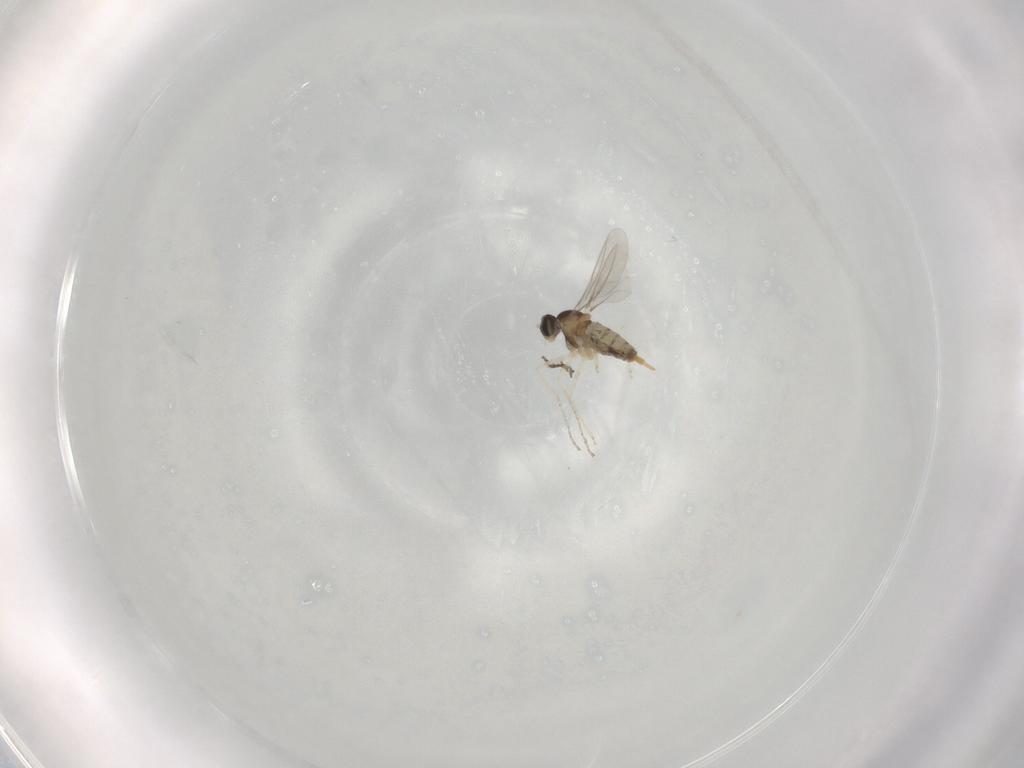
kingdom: Animalia
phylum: Arthropoda
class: Insecta
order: Diptera
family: Cecidomyiidae
